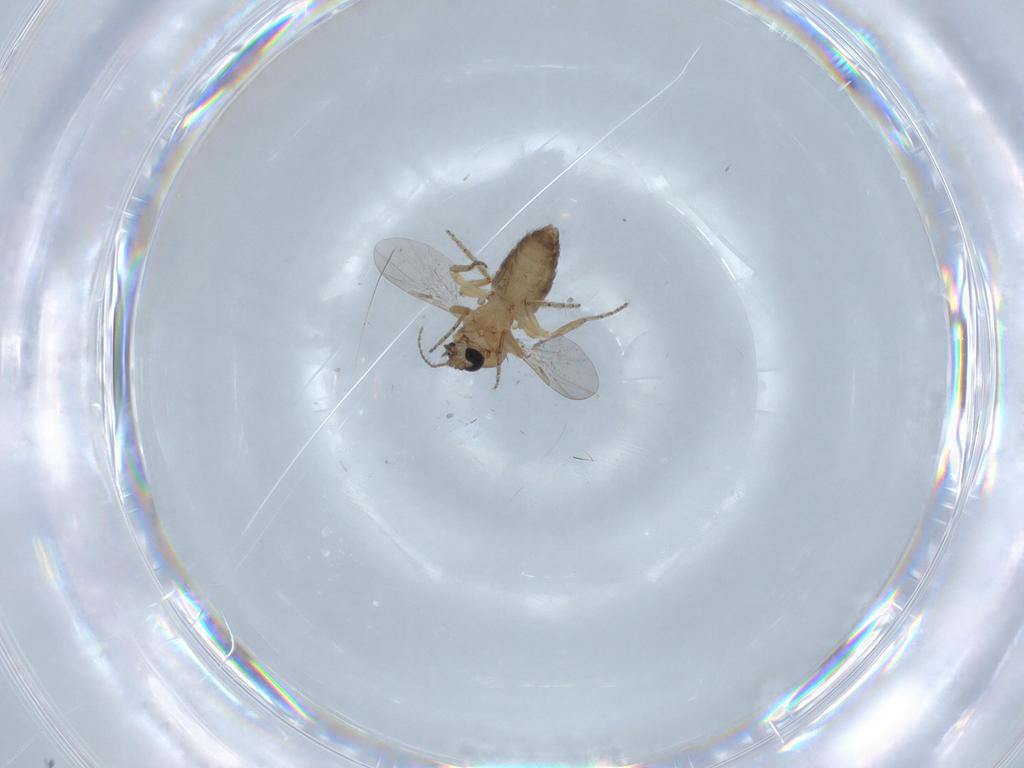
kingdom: Animalia
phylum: Arthropoda
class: Insecta
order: Diptera
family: Ceratopogonidae
